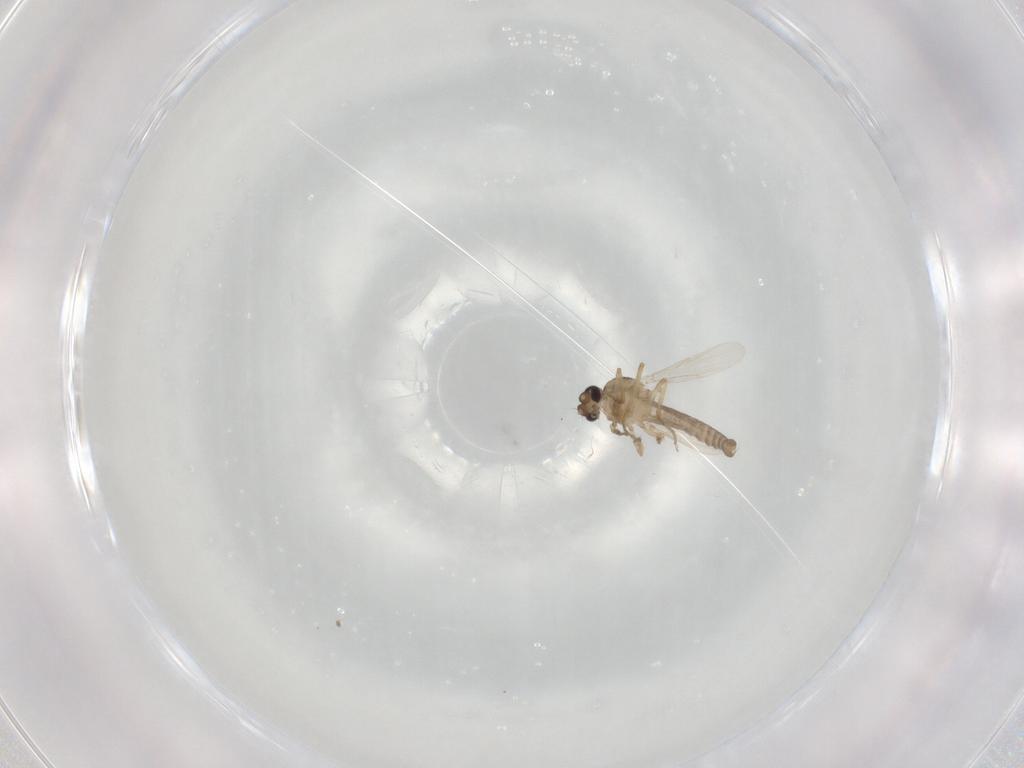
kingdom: Animalia
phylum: Arthropoda
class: Insecta
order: Diptera
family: Ceratopogonidae
